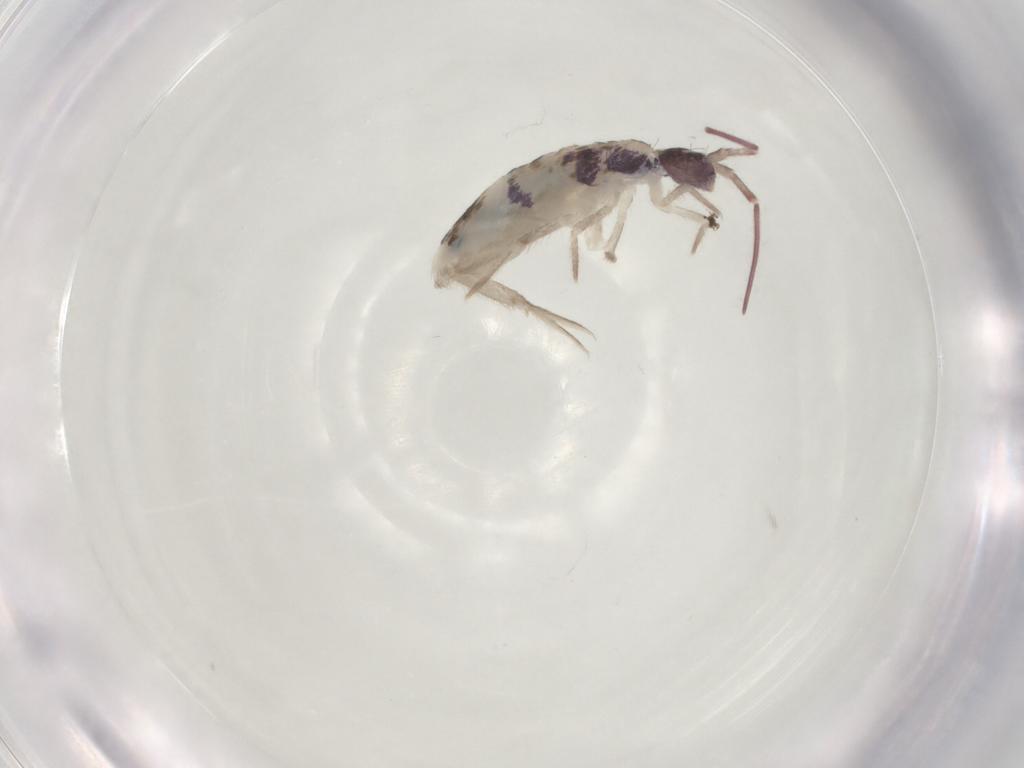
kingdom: Animalia
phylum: Arthropoda
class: Collembola
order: Entomobryomorpha
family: Entomobryidae
